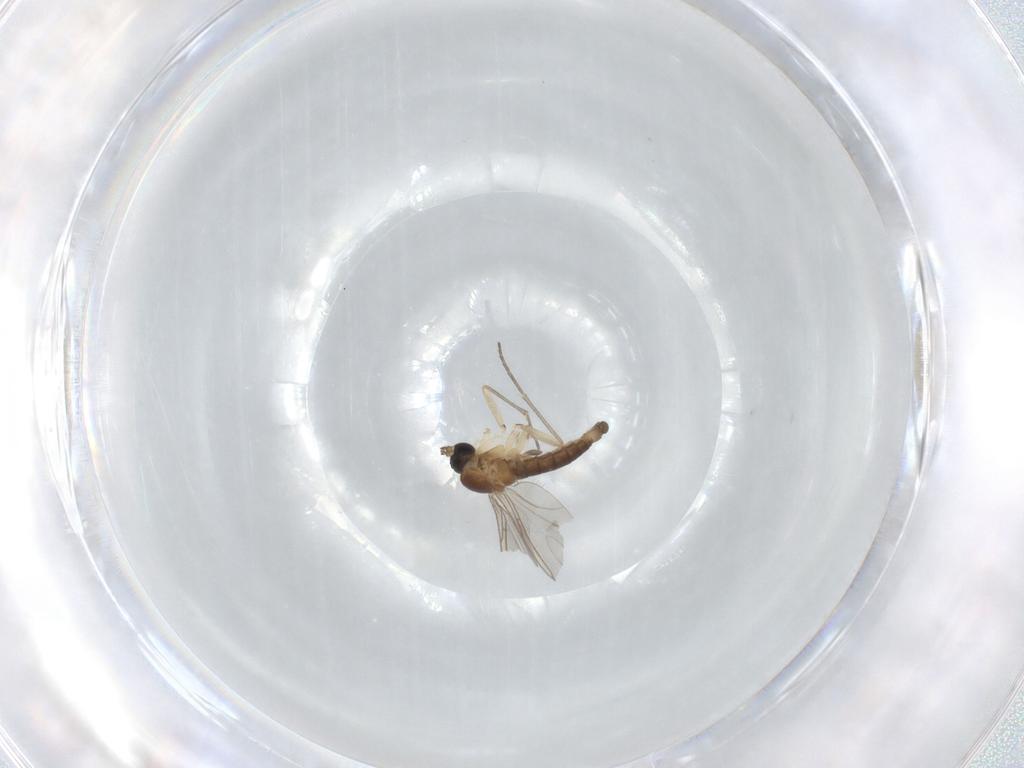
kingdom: Animalia
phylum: Arthropoda
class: Insecta
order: Diptera
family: Sciaridae
